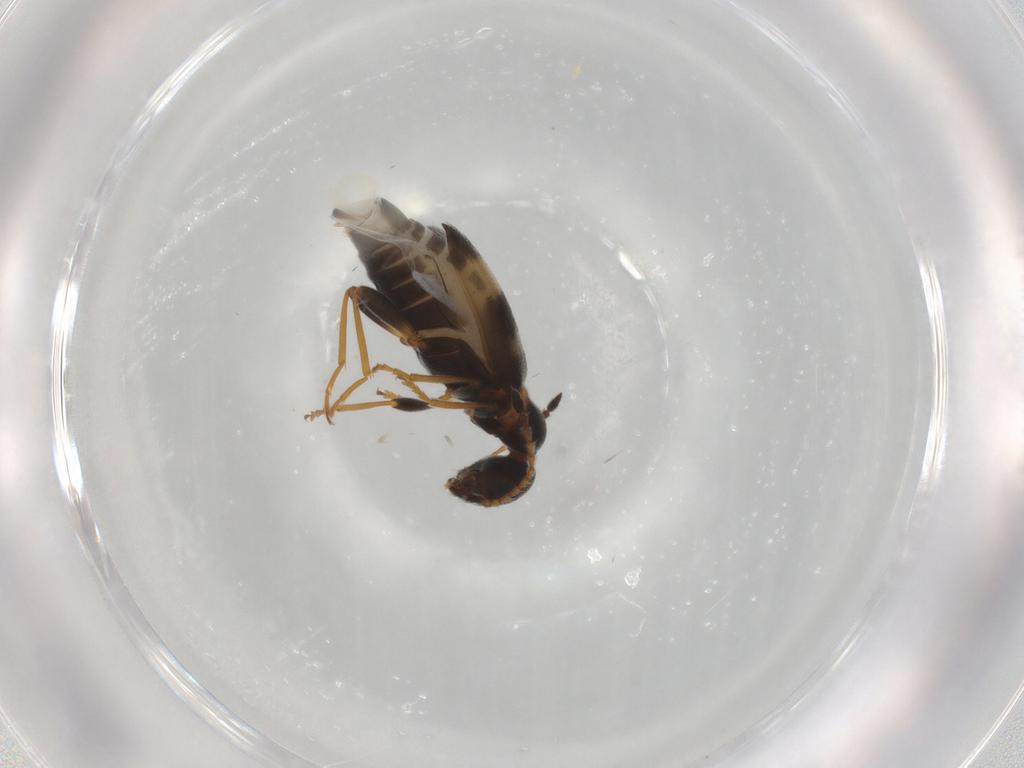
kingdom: Animalia
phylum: Arthropoda
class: Insecta
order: Coleoptera
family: Anthicidae
